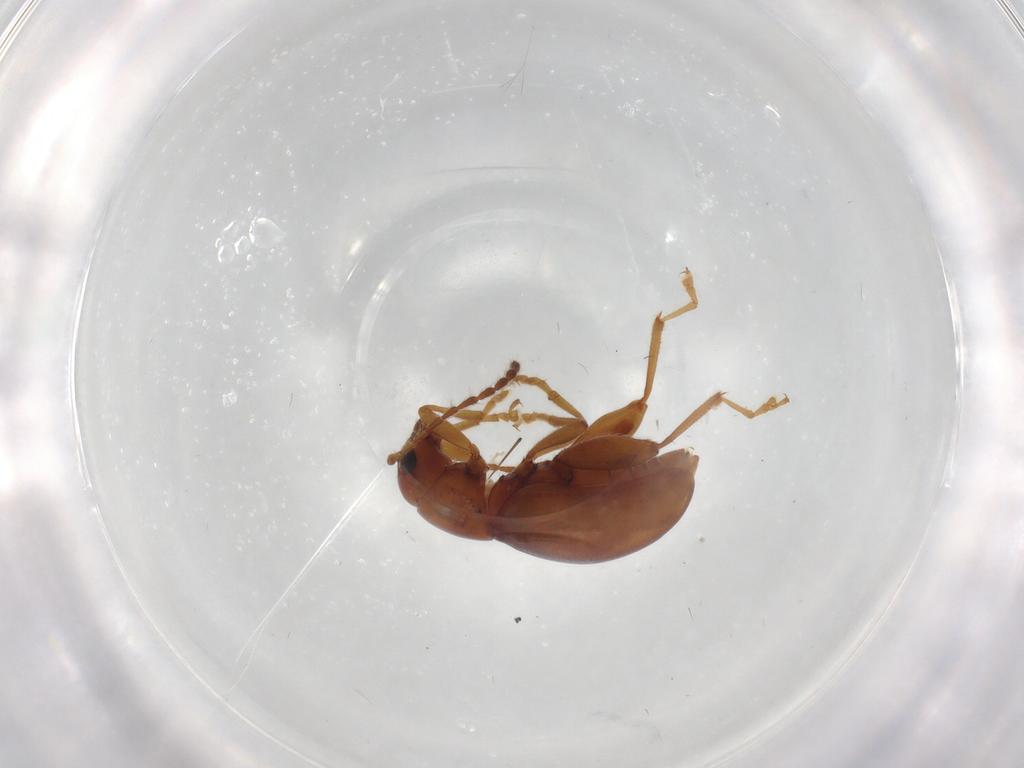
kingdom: Animalia
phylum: Arthropoda
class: Insecta
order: Coleoptera
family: Chrysomelidae
